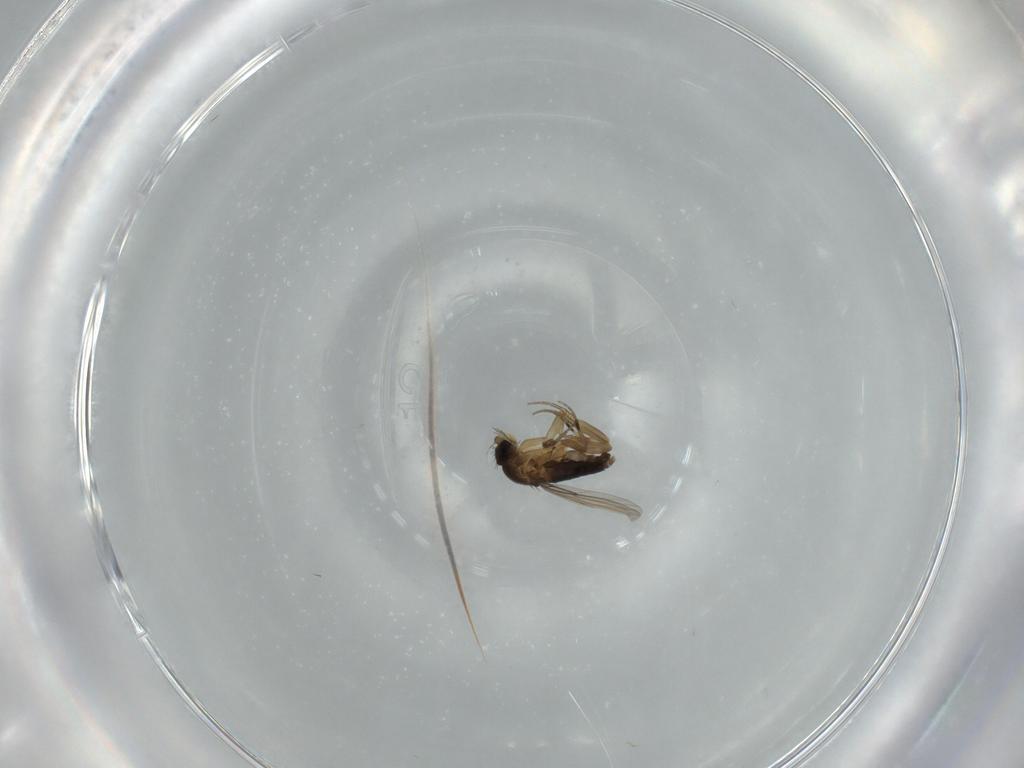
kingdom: Animalia
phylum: Arthropoda
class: Insecta
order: Diptera
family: Phoridae
